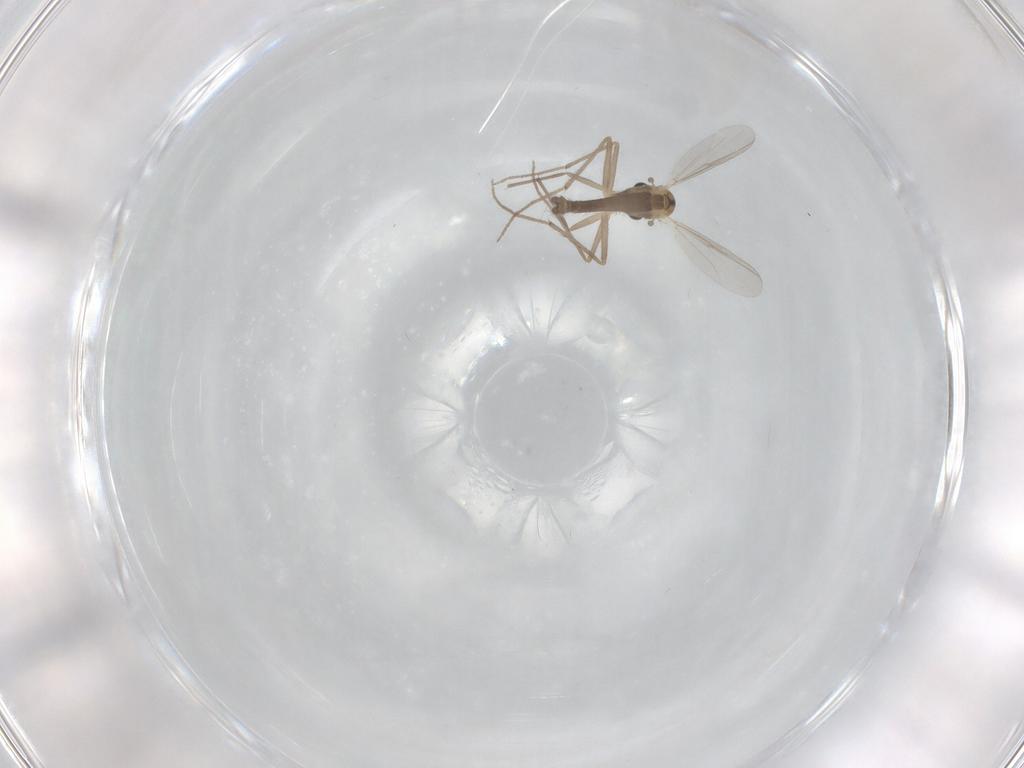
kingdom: Animalia
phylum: Arthropoda
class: Insecta
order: Diptera
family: Chironomidae
